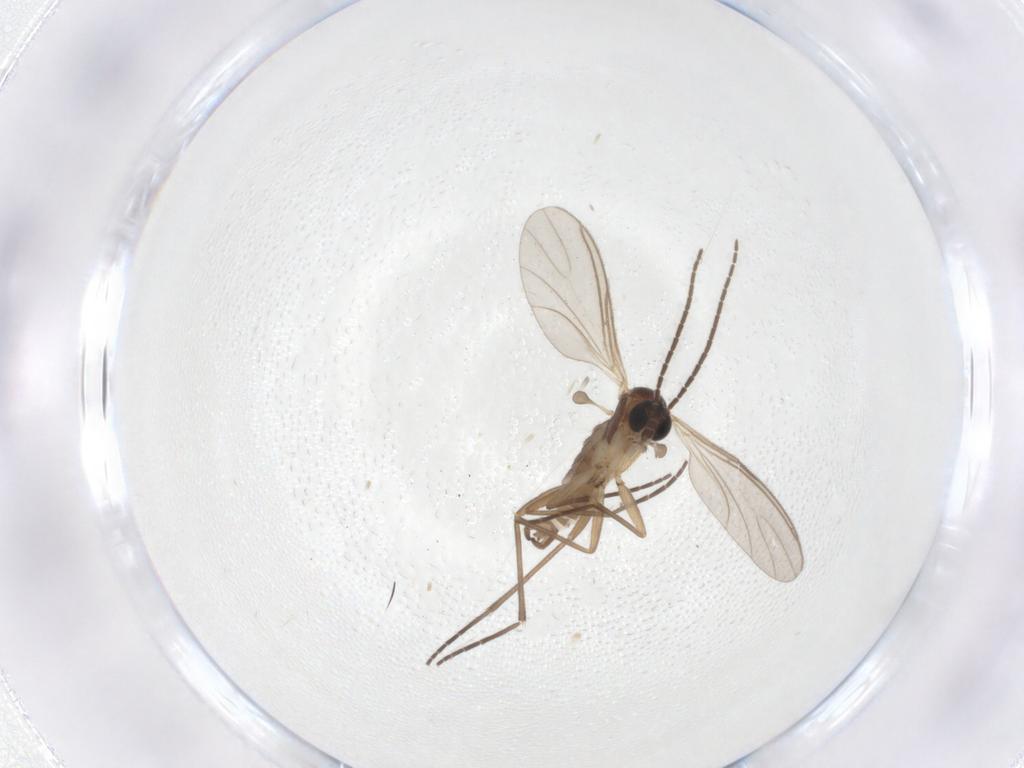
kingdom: Animalia
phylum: Arthropoda
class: Insecta
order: Diptera
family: Sciaridae
